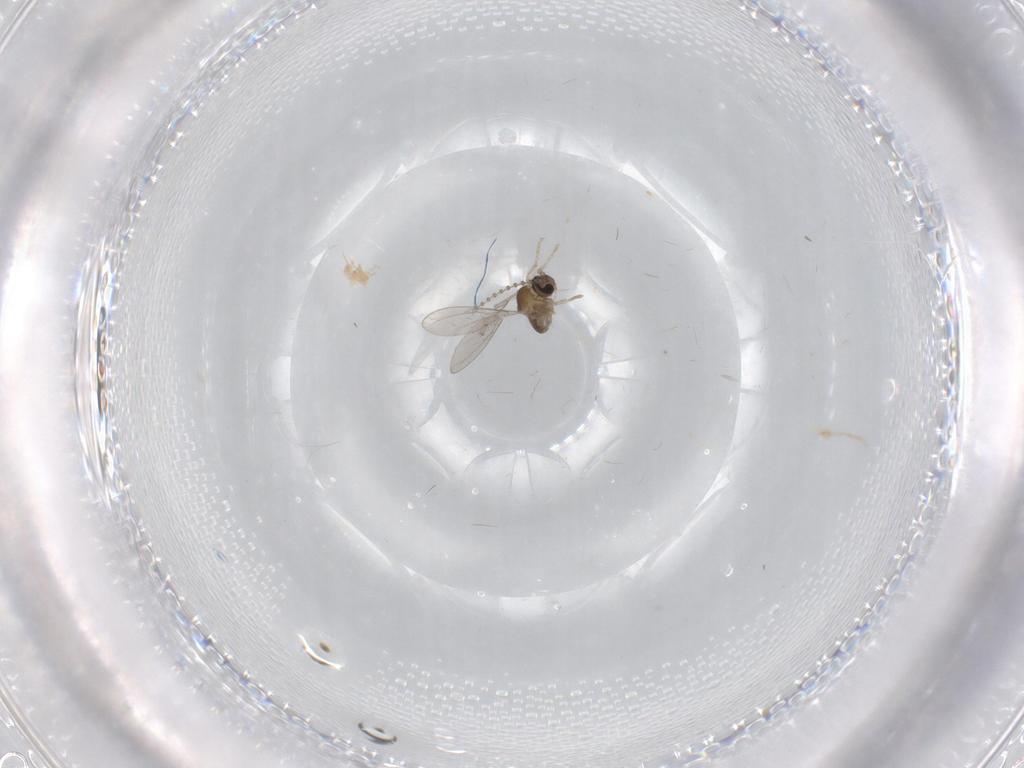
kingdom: Animalia
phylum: Arthropoda
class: Insecta
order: Diptera
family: Cecidomyiidae
